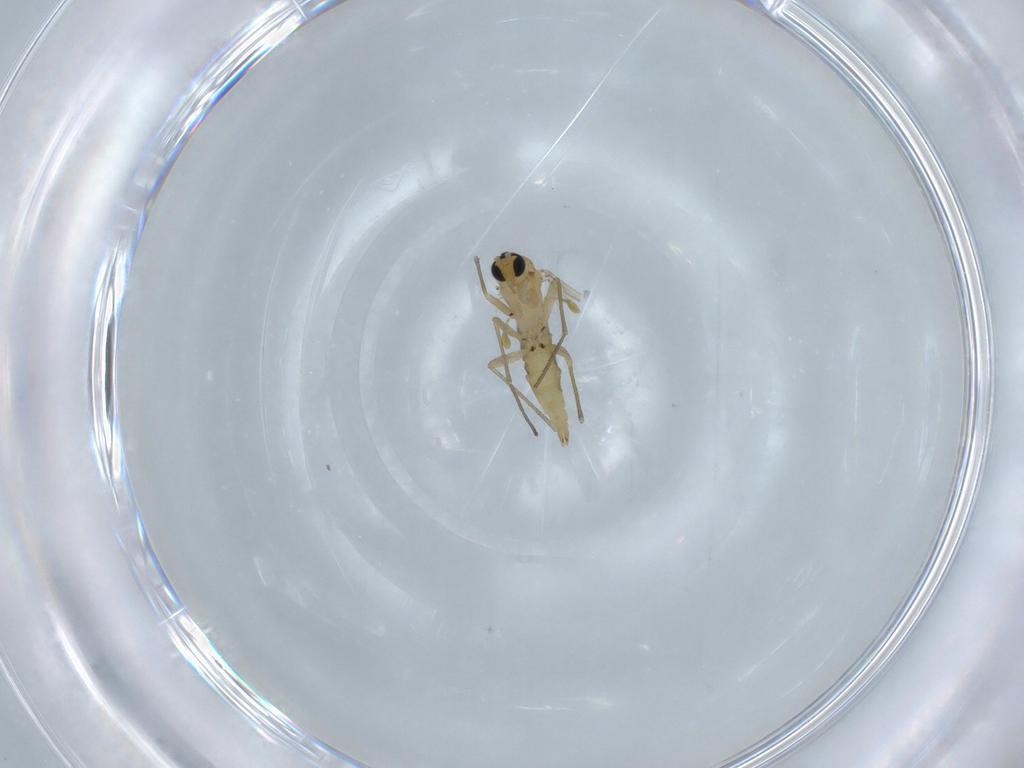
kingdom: Animalia
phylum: Arthropoda
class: Insecta
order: Diptera
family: Sciaridae
